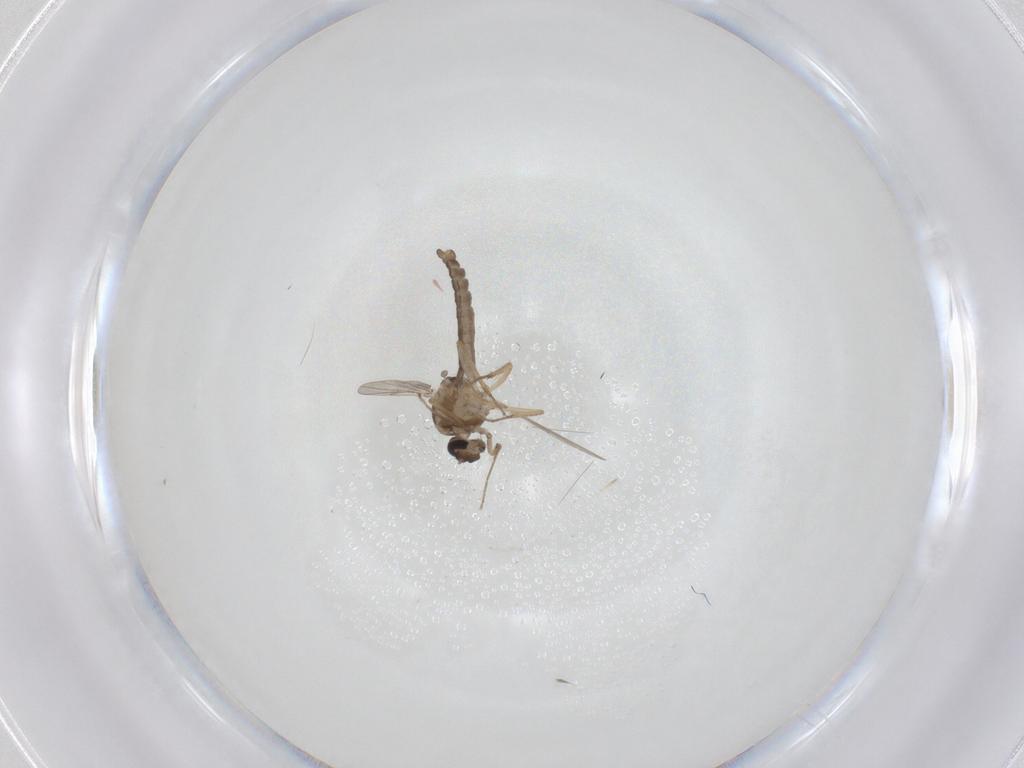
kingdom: Animalia
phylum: Arthropoda
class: Insecta
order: Diptera
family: Ceratopogonidae
